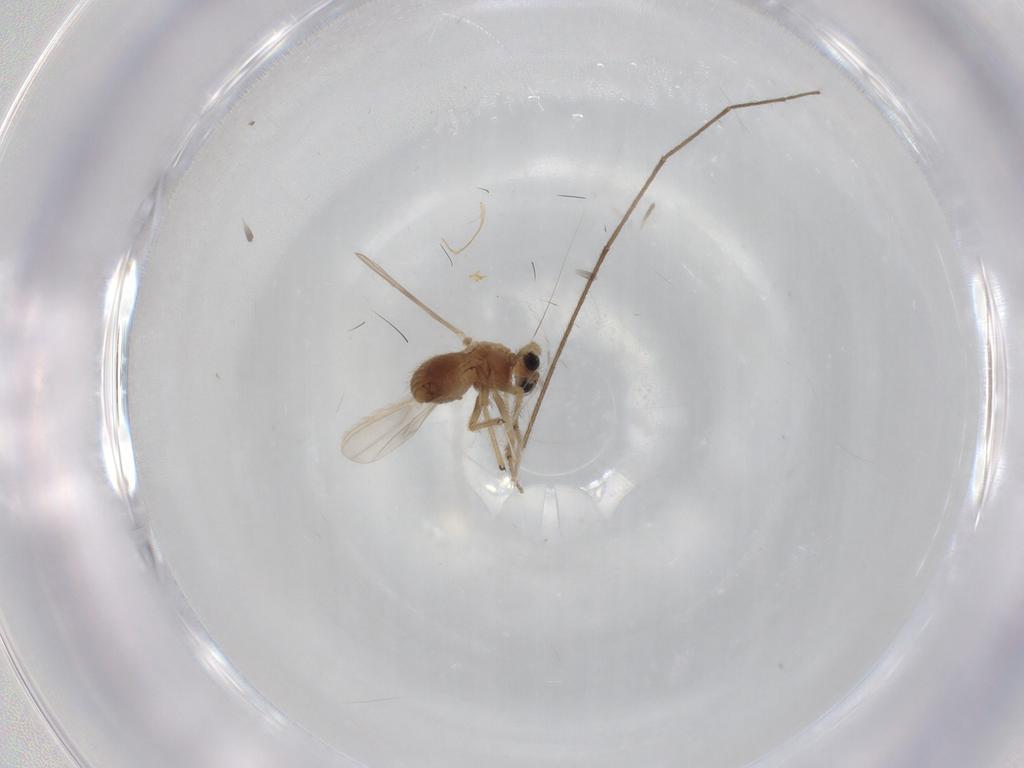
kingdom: Animalia
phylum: Arthropoda
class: Insecta
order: Diptera
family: Chironomidae
